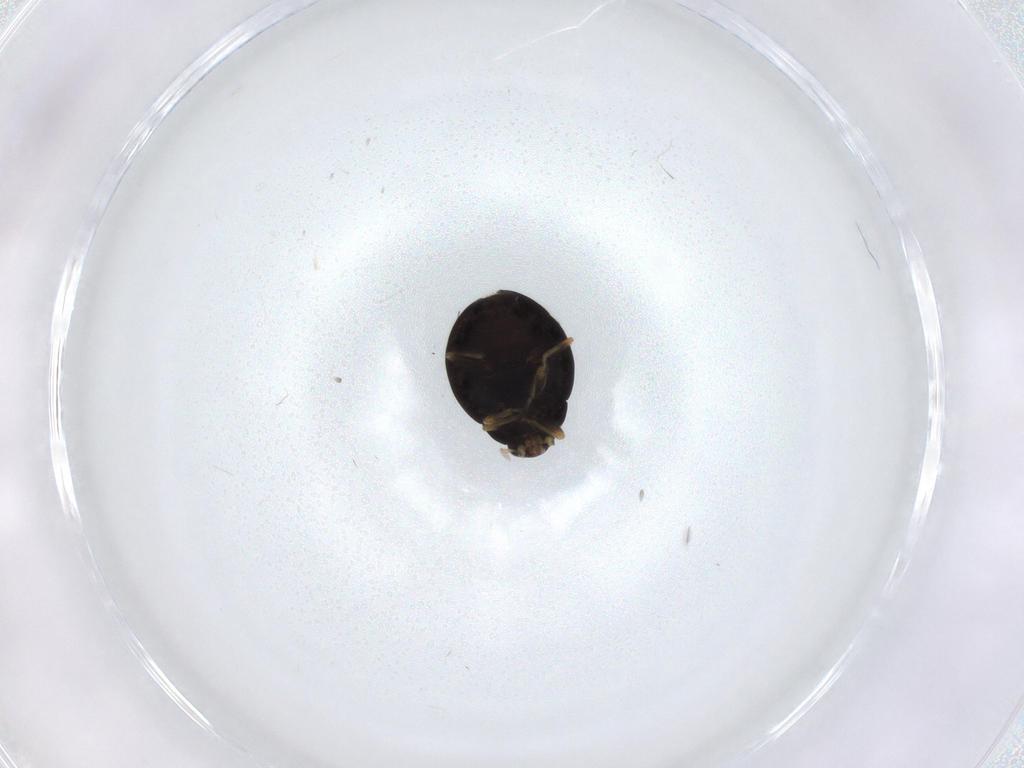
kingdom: Animalia
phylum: Arthropoda
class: Insecta
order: Coleoptera
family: Coccinellidae
